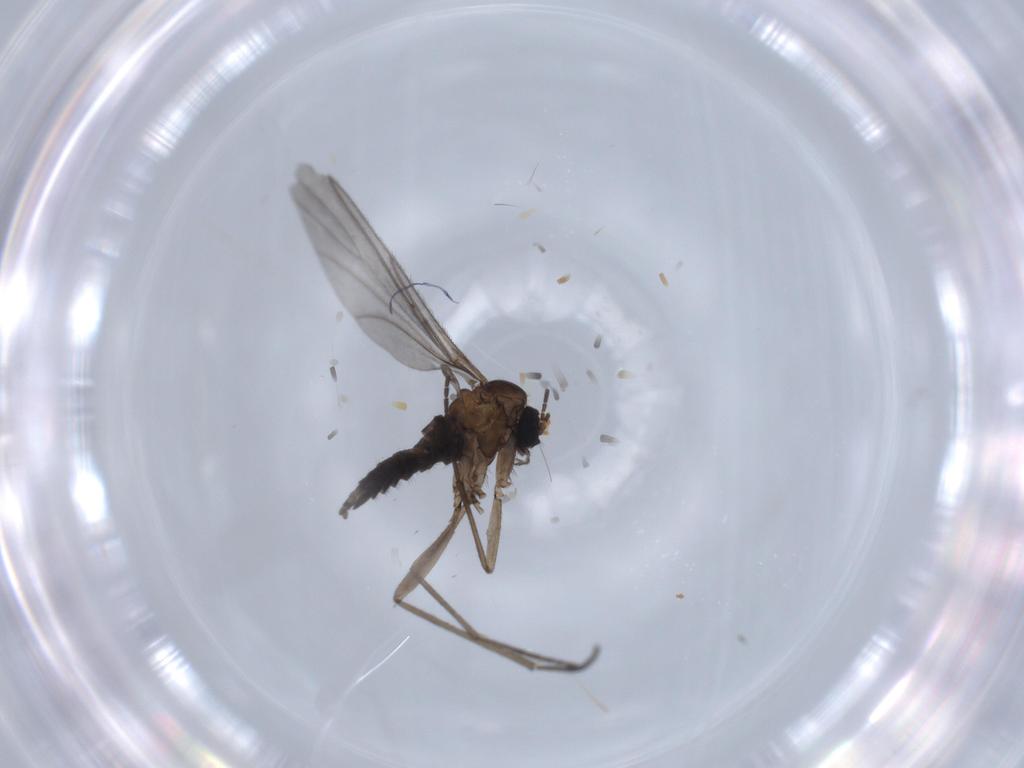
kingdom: Animalia
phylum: Arthropoda
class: Insecta
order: Diptera
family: Sciaridae
